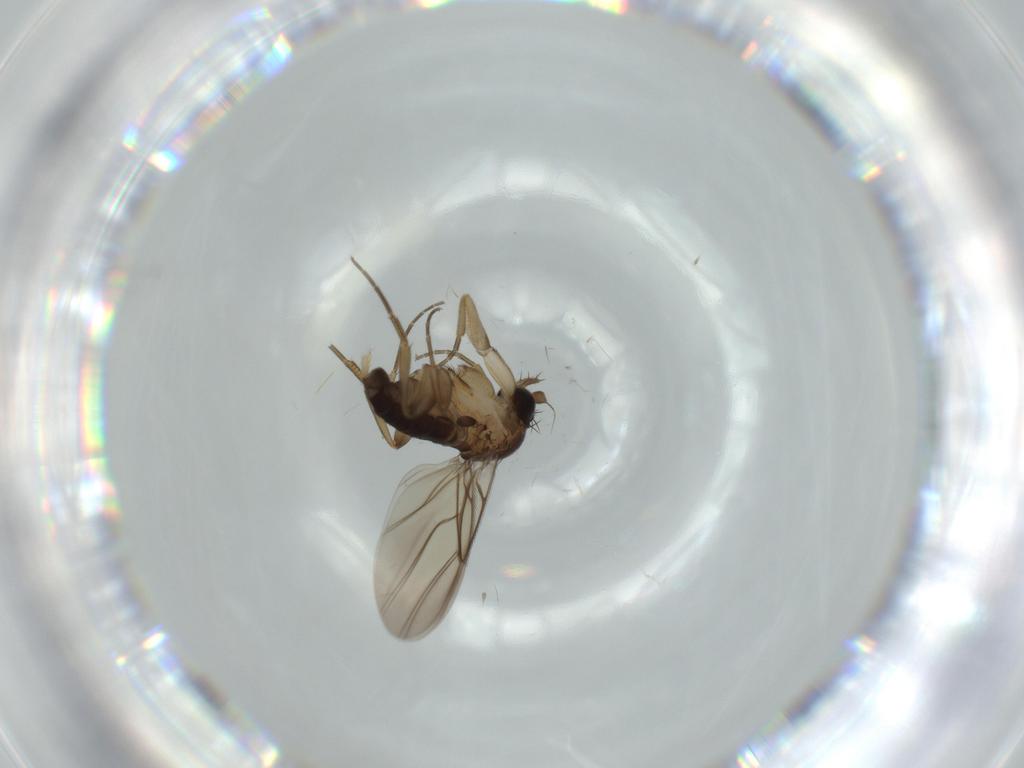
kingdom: Animalia
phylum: Arthropoda
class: Insecta
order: Diptera
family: Phoridae
